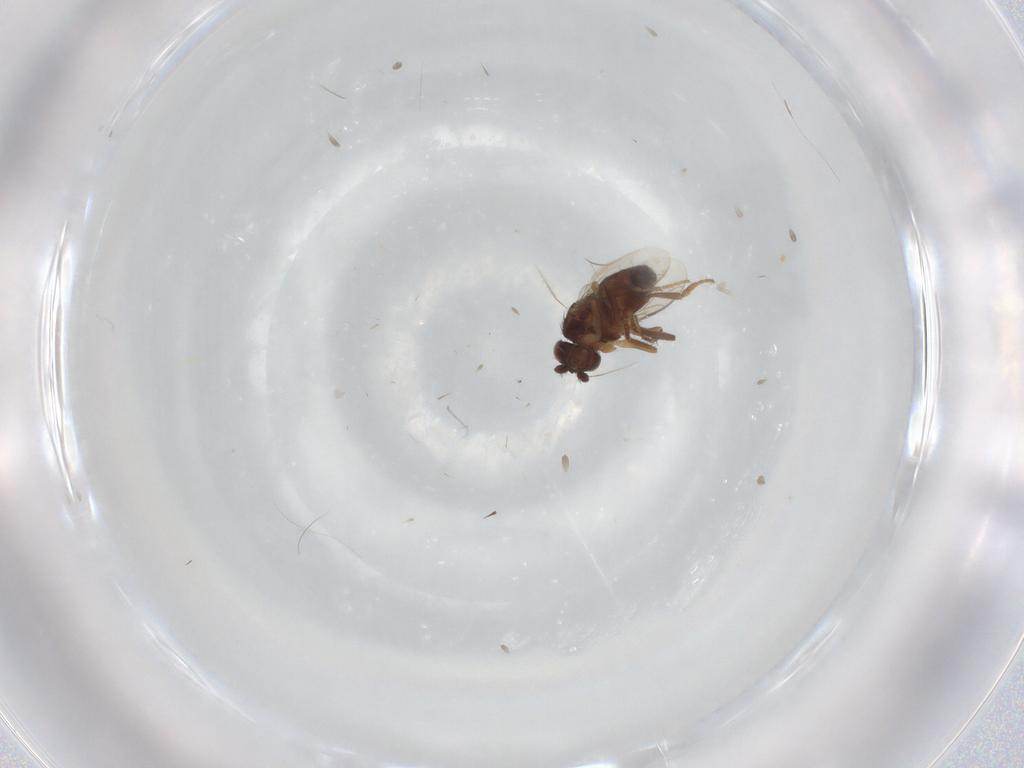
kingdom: Animalia
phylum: Arthropoda
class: Insecta
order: Diptera
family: Sphaeroceridae
